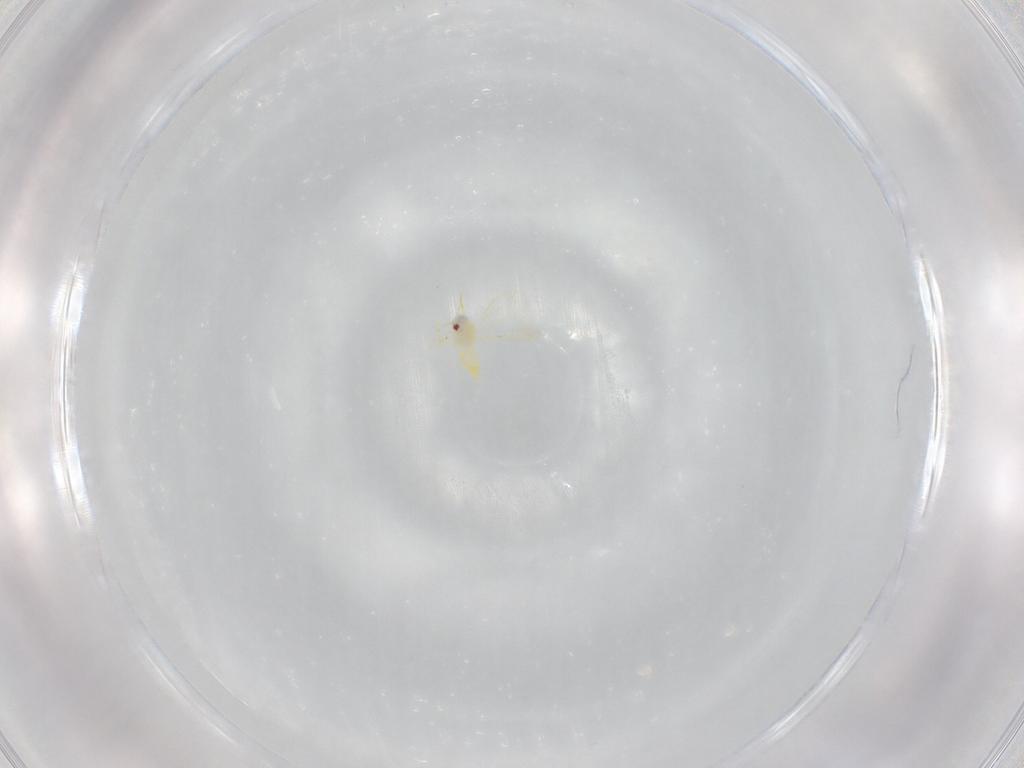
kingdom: Animalia
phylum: Arthropoda
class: Insecta
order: Hemiptera
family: Aleyrodidae
